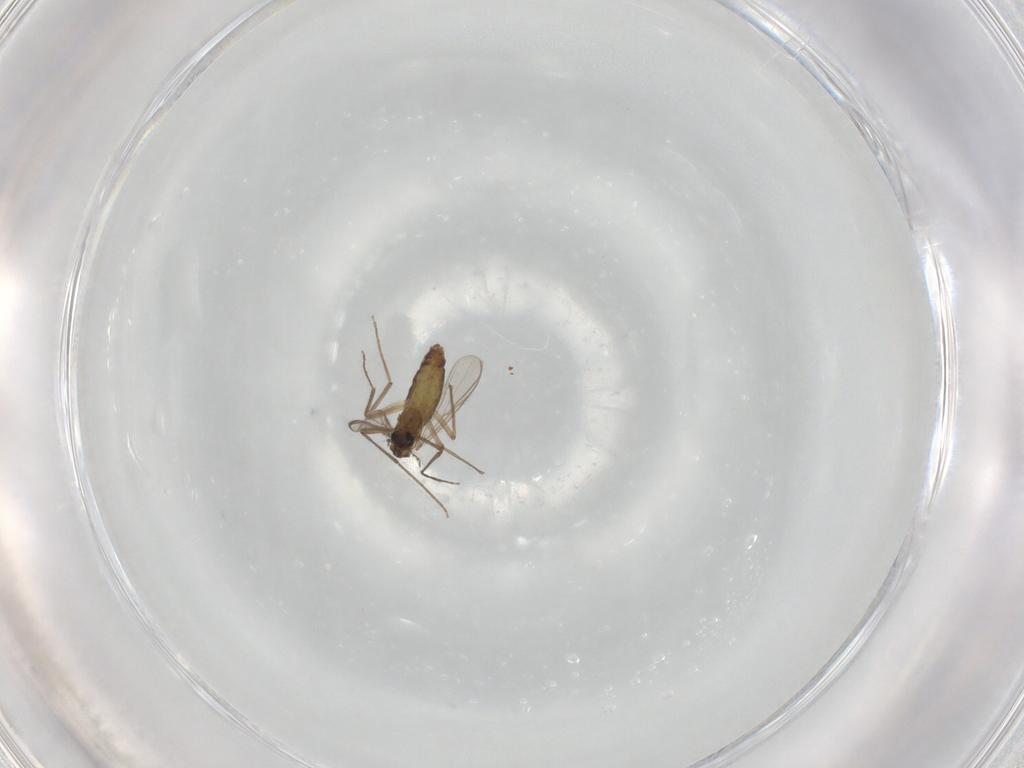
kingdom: Animalia
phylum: Arthropoda
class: Insecta
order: Diptera
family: Chironomidae
